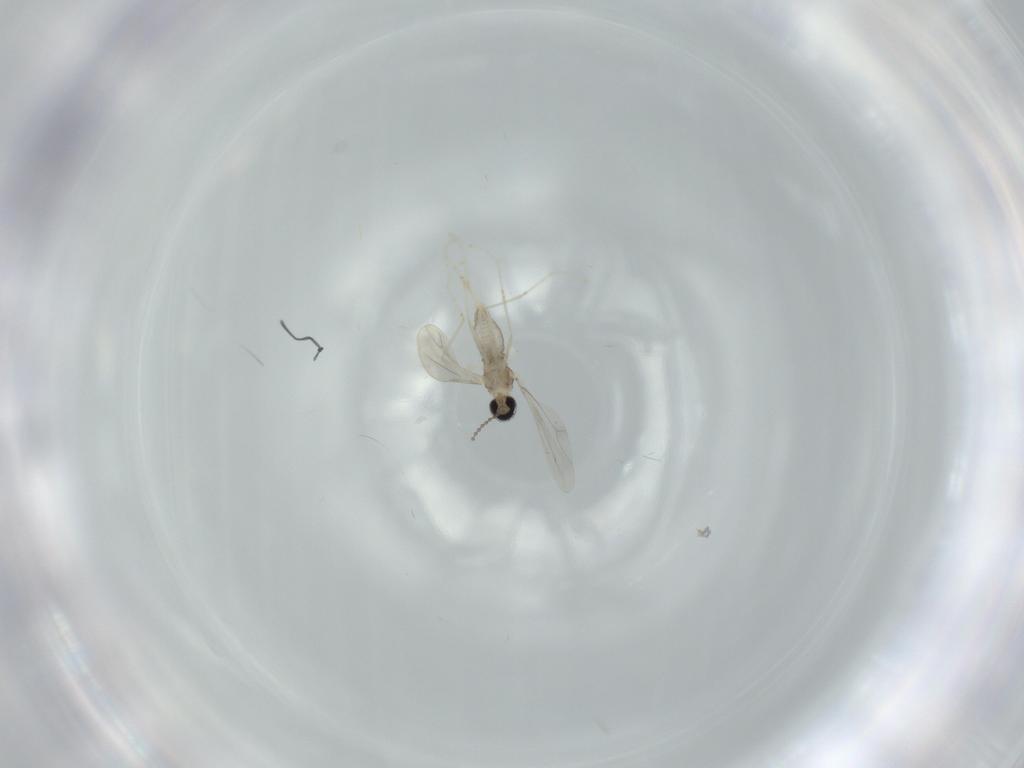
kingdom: Animalia
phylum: Arthropoda
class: Insecta
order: Diptera
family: Cecidomyiidae
